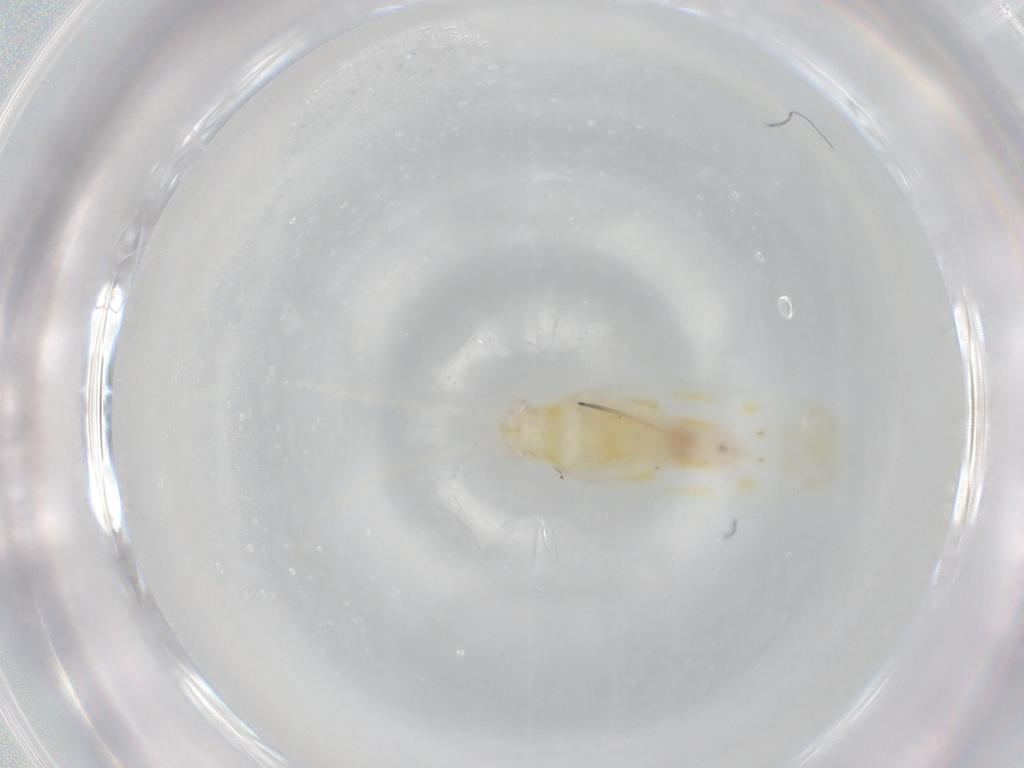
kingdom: Animalia
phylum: Arthropoda
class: Insecta
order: Hemiptera
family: Miridae
